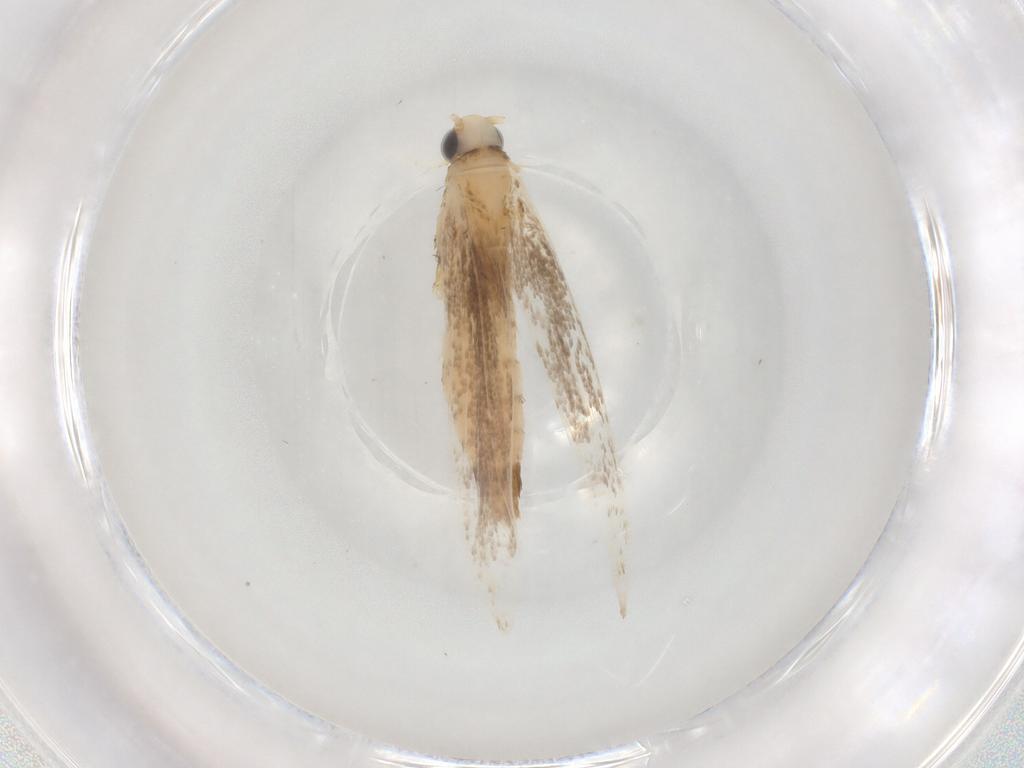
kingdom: Animalia
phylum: Arthropoda
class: Insecta
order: Lepidoptera
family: Gracillariidae
